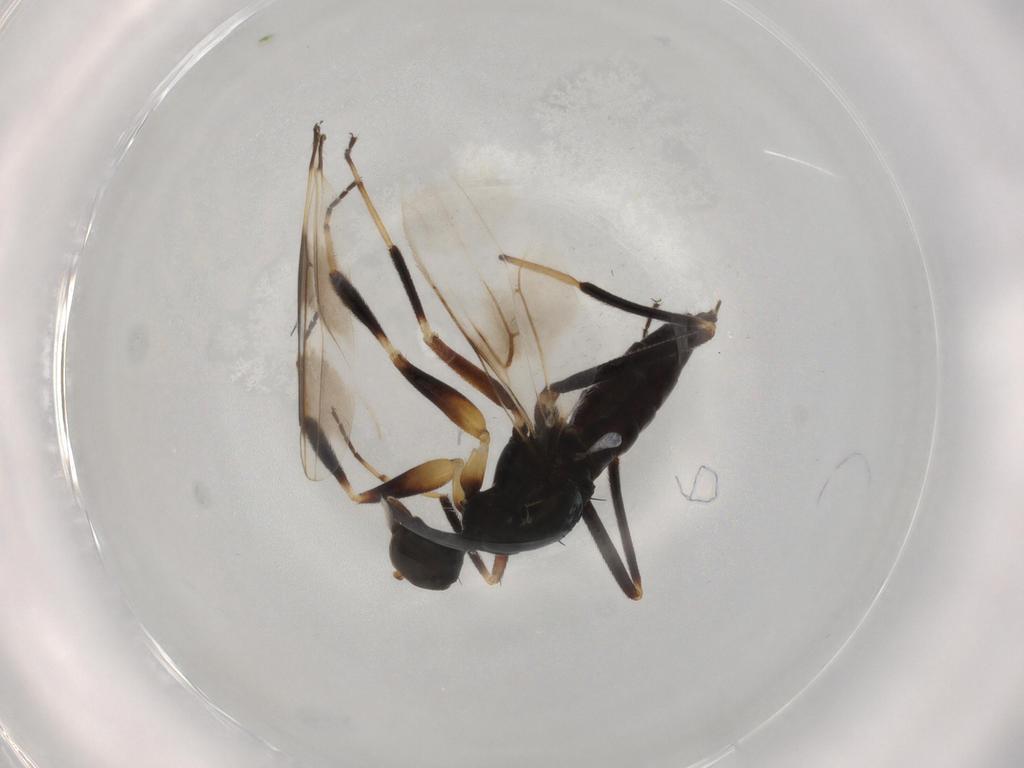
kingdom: Animalia
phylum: Arthropoda
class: Insecta
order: Diptera
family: Hybotidae
